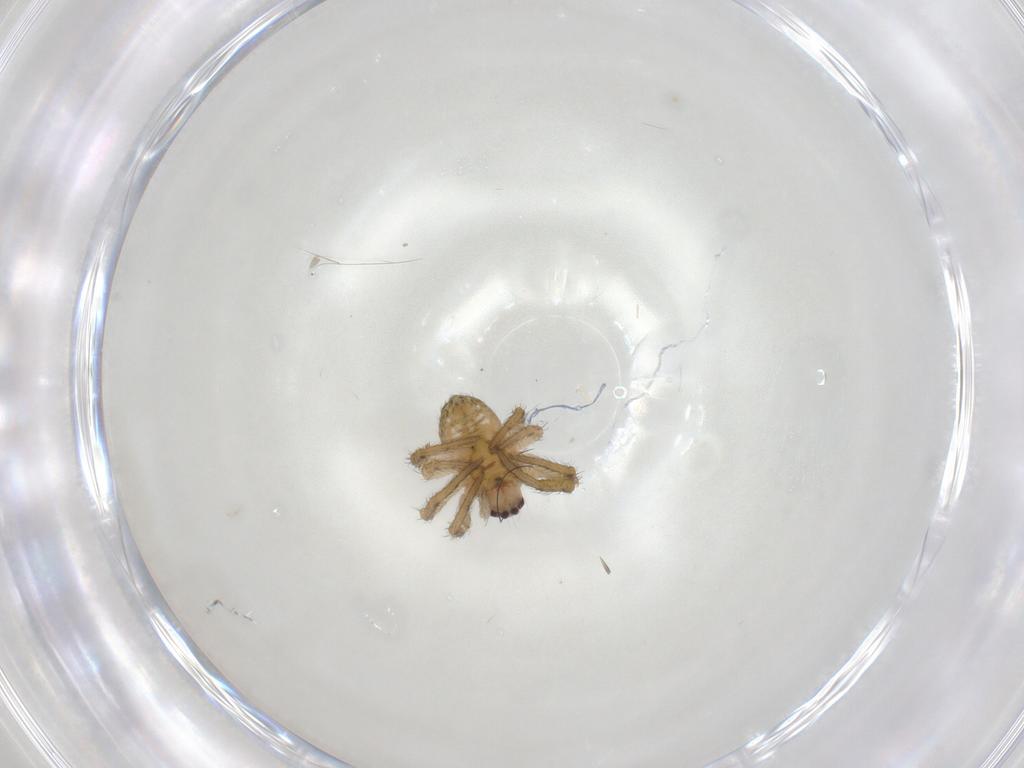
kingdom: Animalia
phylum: Arthropoda
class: Arachnida
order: Araneae
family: Araneidae
